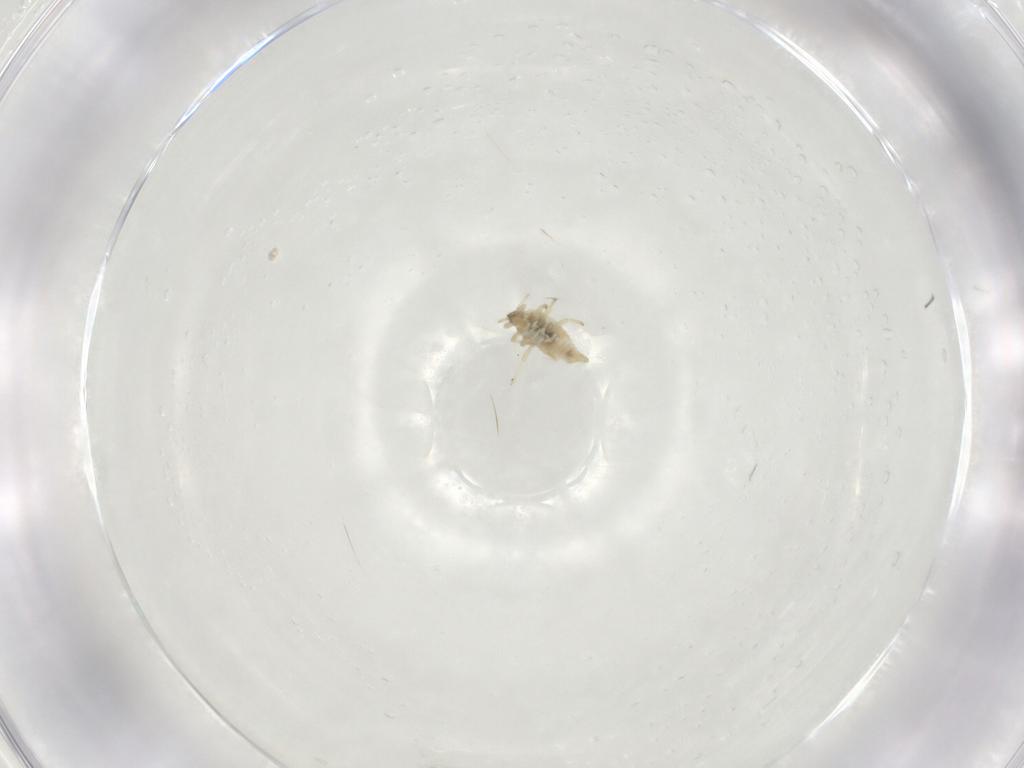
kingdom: Animalia
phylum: Arthropoda
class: Insecta
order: Neuroptera
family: Coniopterygidae
